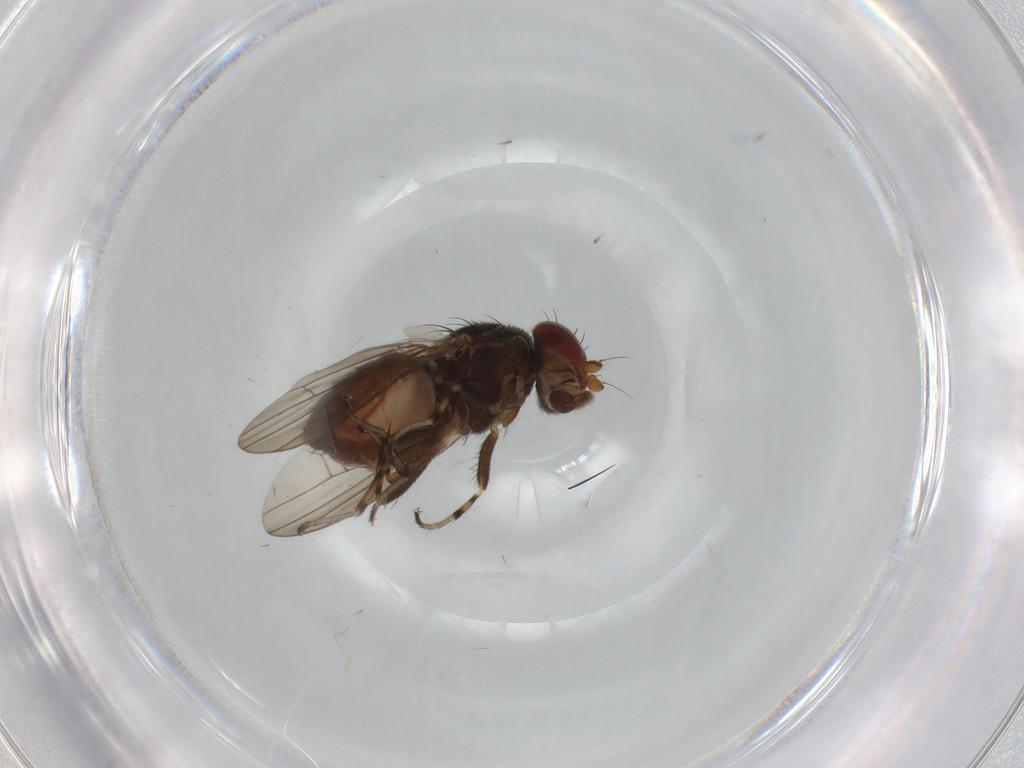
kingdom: Animalia
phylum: Arthropoda
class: Insecta
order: Diptera
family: Heleomyzidae
